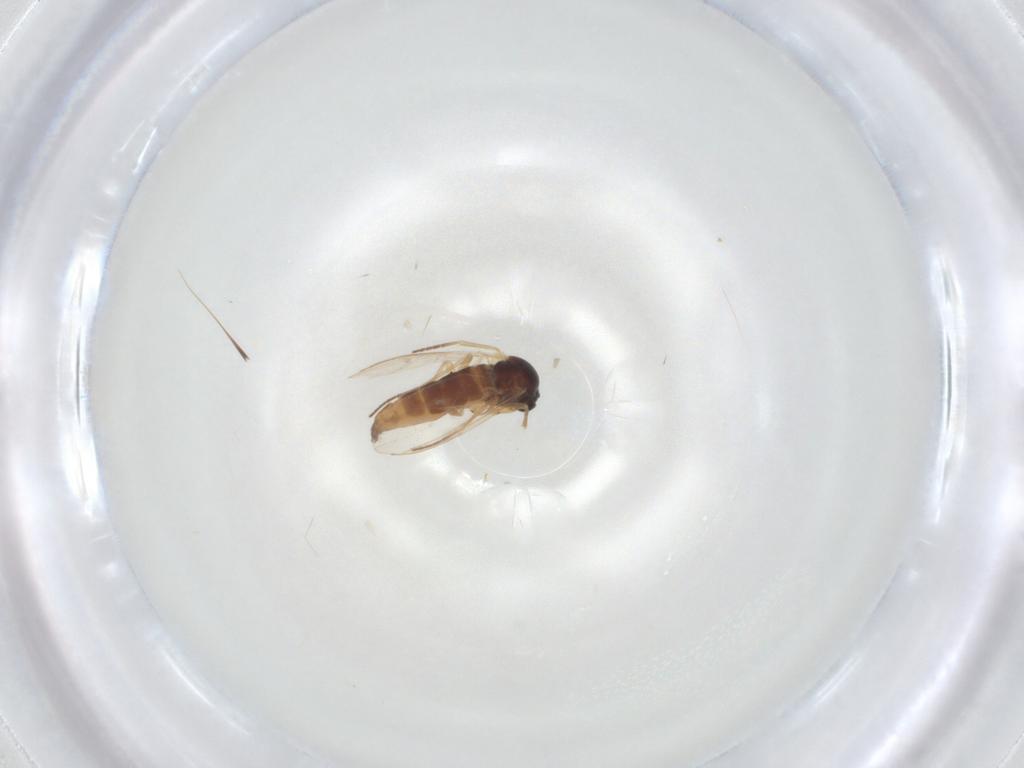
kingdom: Animalia
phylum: Arthropoda
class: Insecta
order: Diptera
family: Sciaridae
